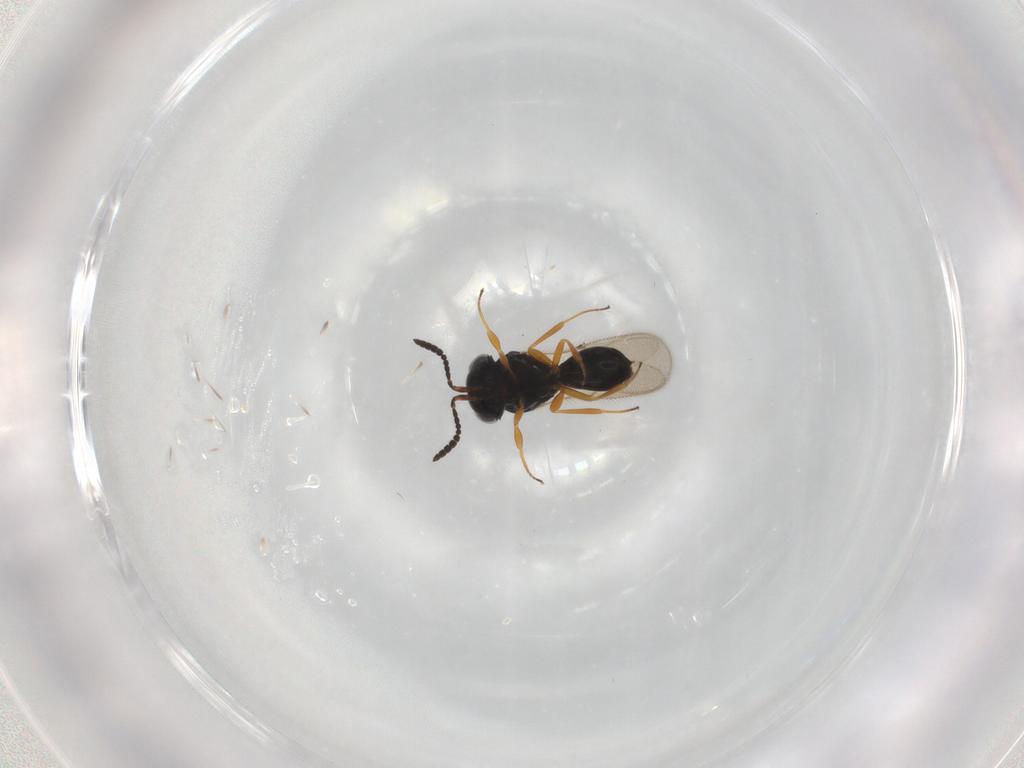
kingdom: Animalia
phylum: Arthropoda
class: Insecta
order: Hymenoptera
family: Scelionidae
